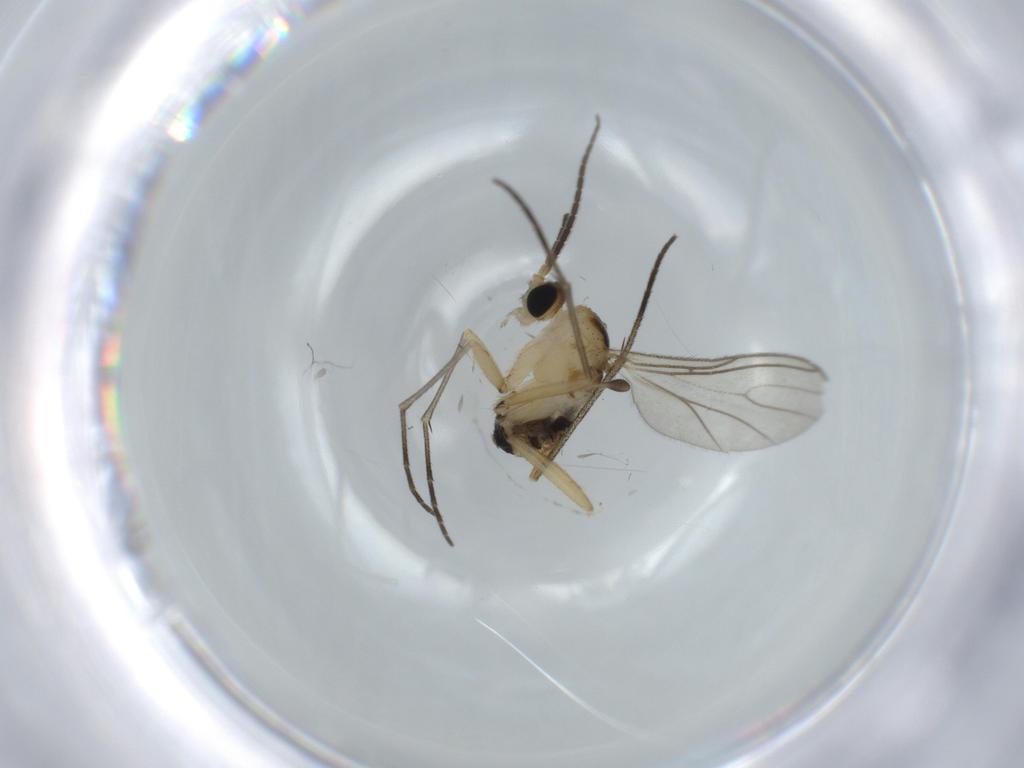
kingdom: Animalia
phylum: Arthropoda
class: Insecta
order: Diptera
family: Sciaridae
